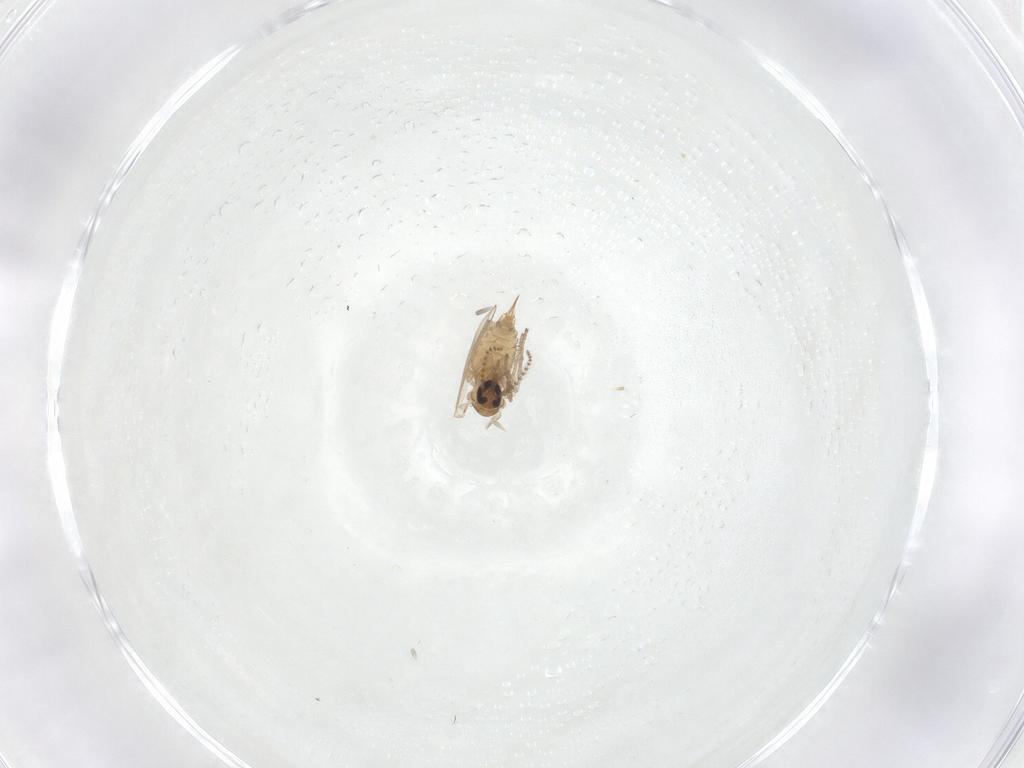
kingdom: Animalia
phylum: Arthropoda
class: Insecta
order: Diptera
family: Psychodidae
